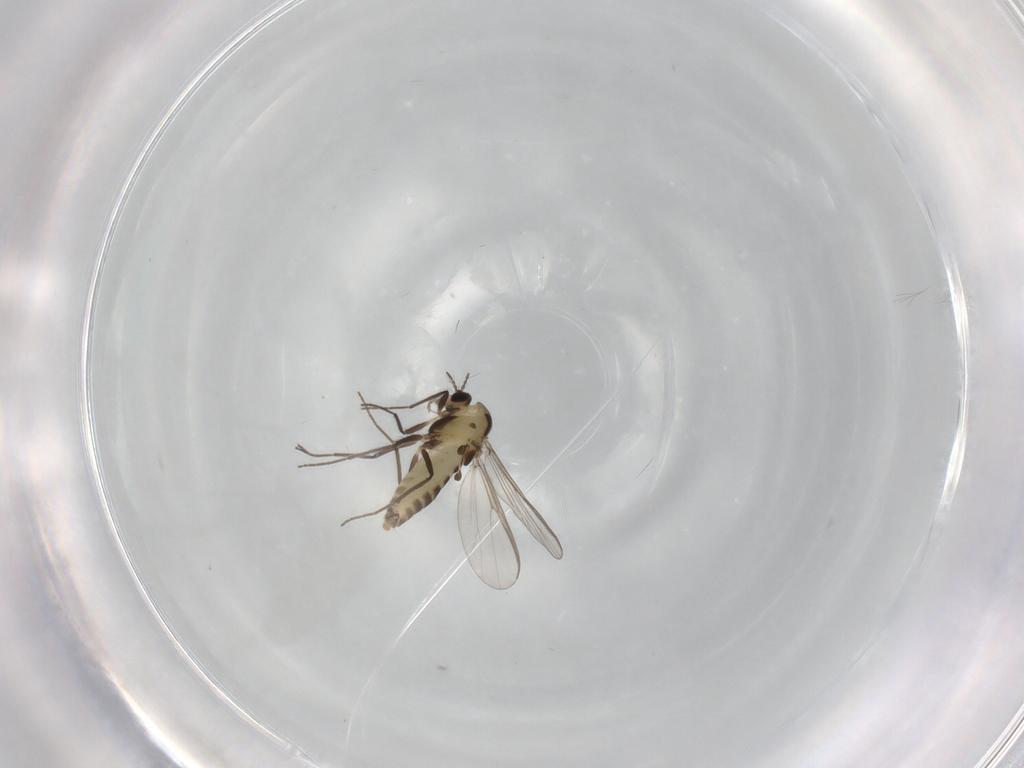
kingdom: Animalia
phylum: Arthropoda
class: Insecta
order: Diptera
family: Chironomidae
